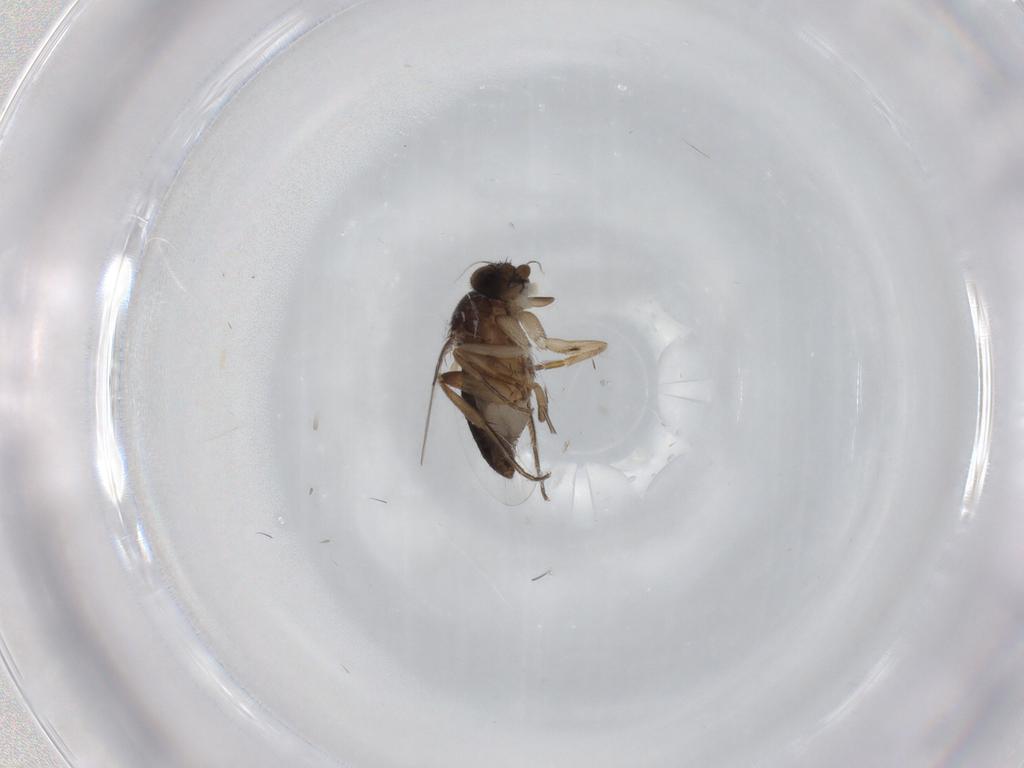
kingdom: Animalia
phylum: Arthropoda
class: Insecta
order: Diptera
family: Phoridae
